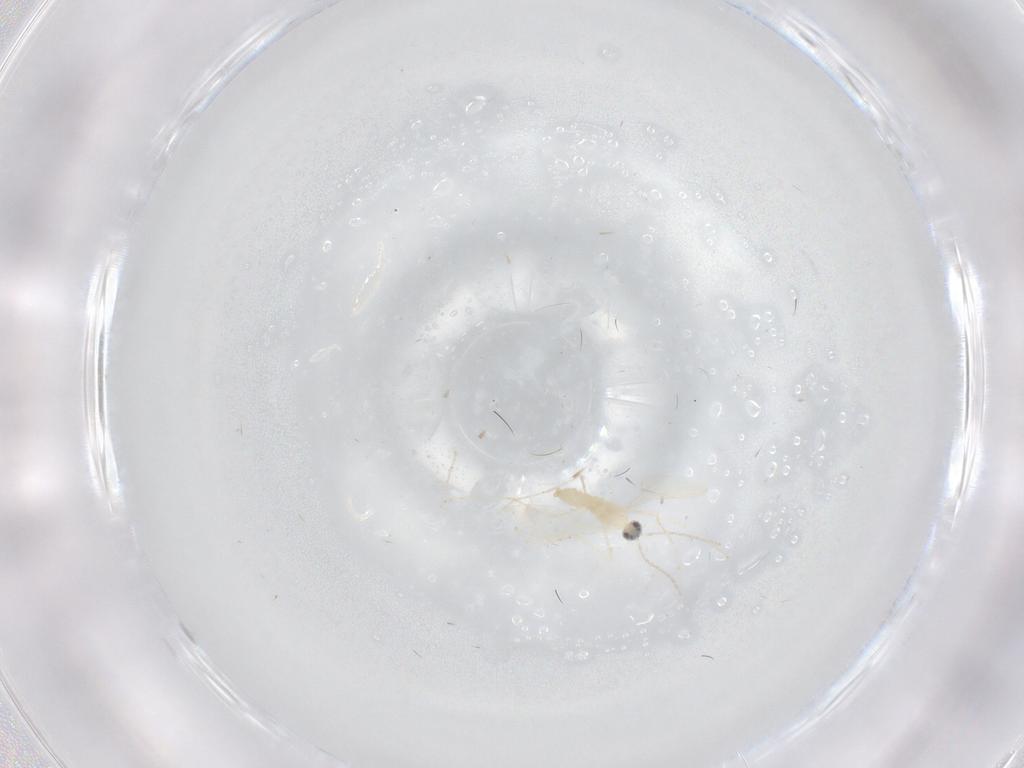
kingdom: Animalia
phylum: Arthropoda
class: Insecta
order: Diptera
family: Cecidomyiidae
